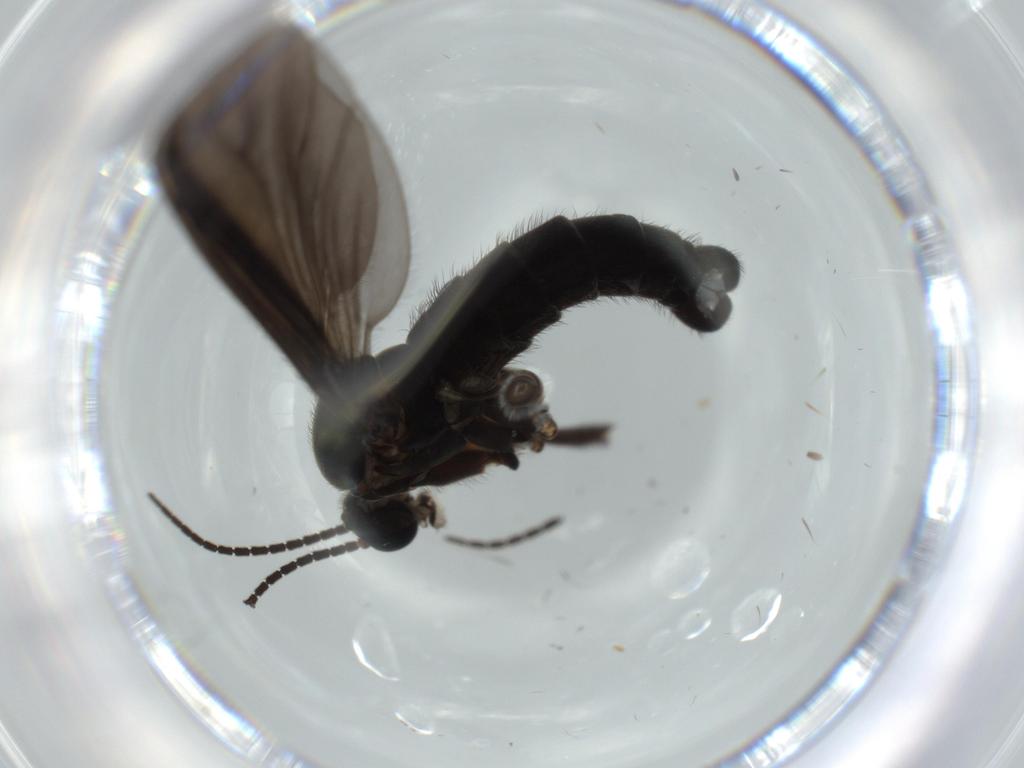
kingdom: Animalia
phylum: Arthropoda
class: Insecta
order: Diptera
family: Sciaridae
